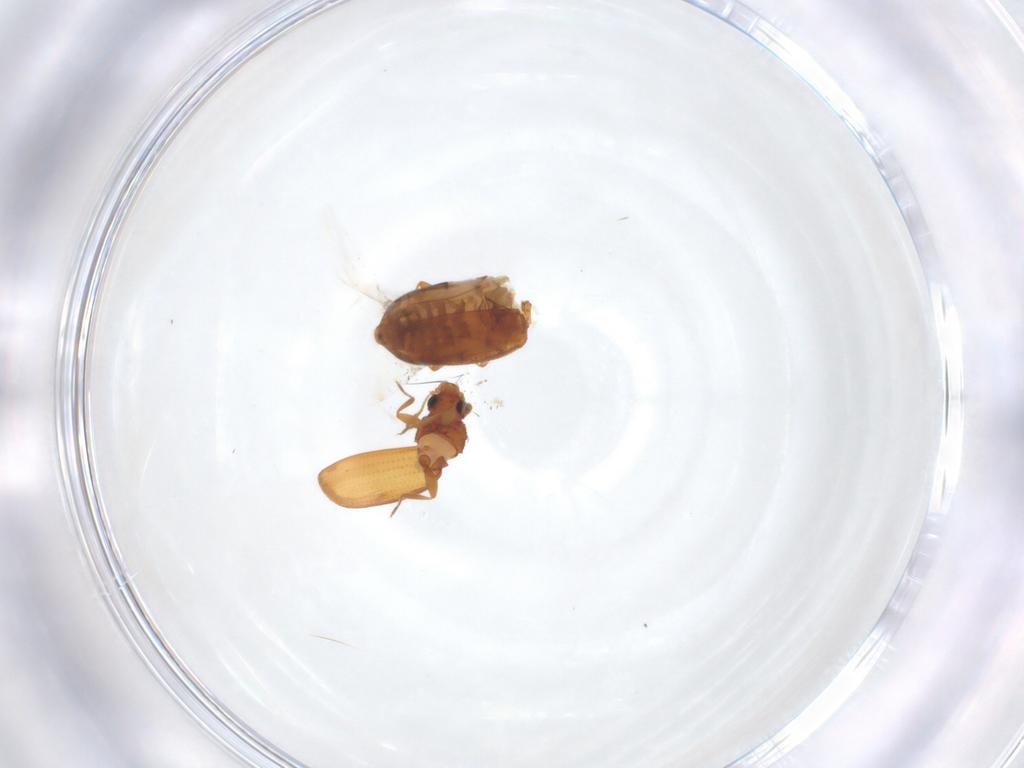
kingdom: Animalia
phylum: Arthropoda
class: Insecta
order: Coleoptera
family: Latridiidae
